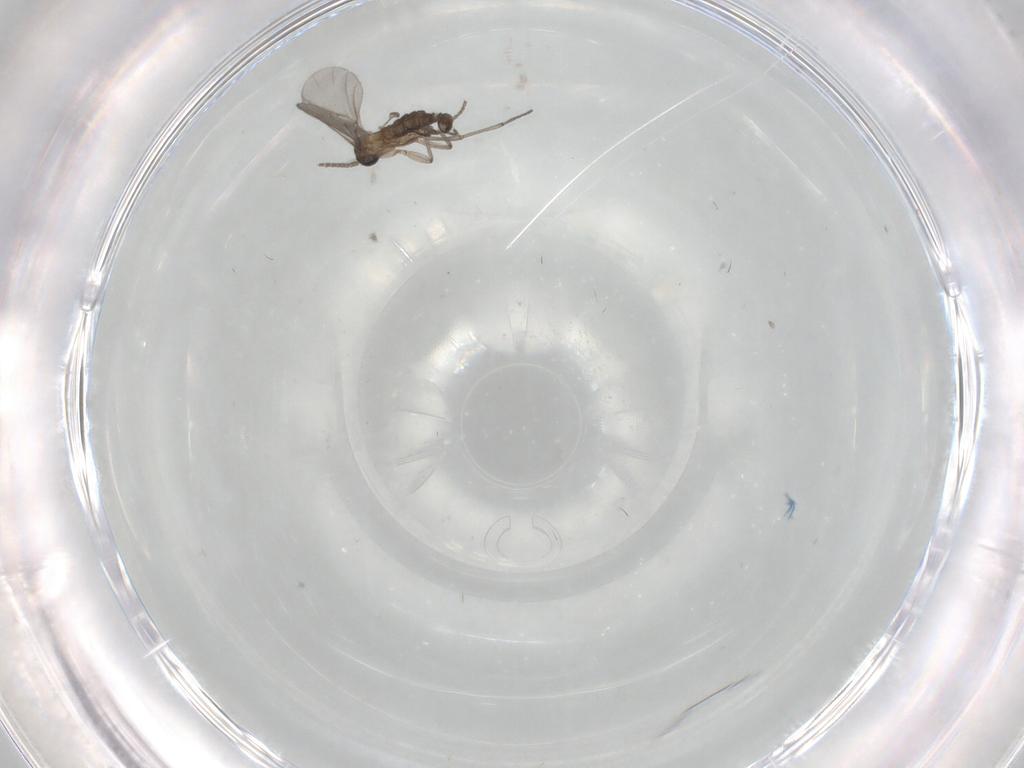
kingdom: Animalia
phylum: Arthropoda
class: Insecta
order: Diptera
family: Sciaridae
